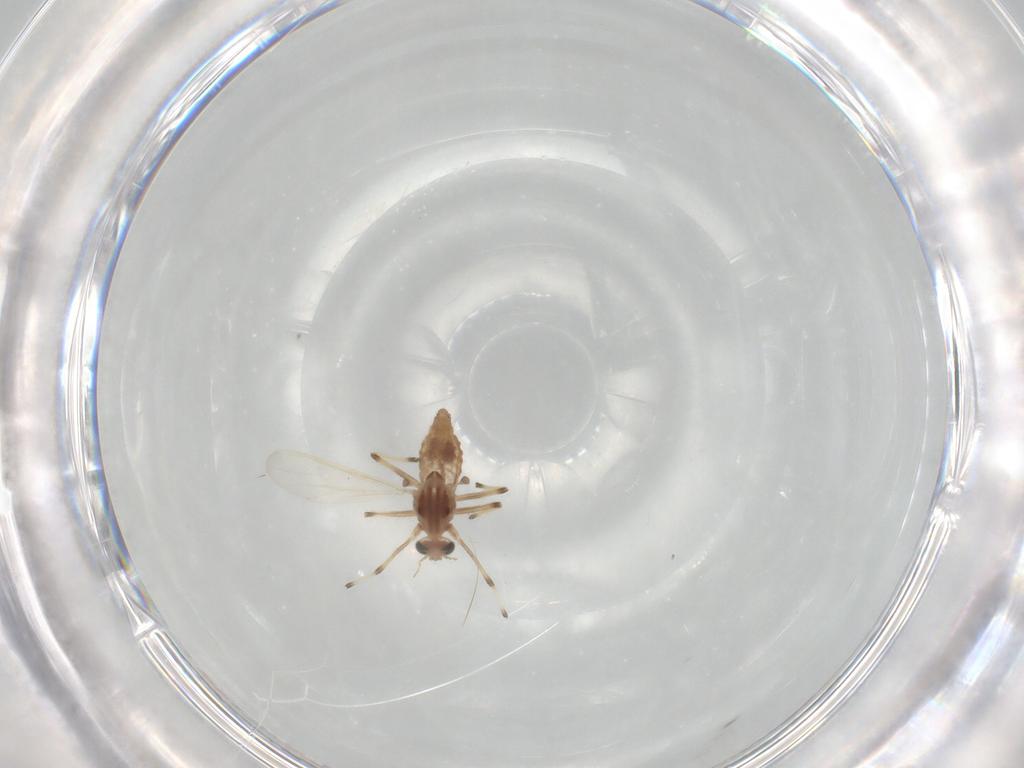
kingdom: Animalia
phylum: Arthropoda
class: Insecta
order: Diptera
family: Chironomidae
